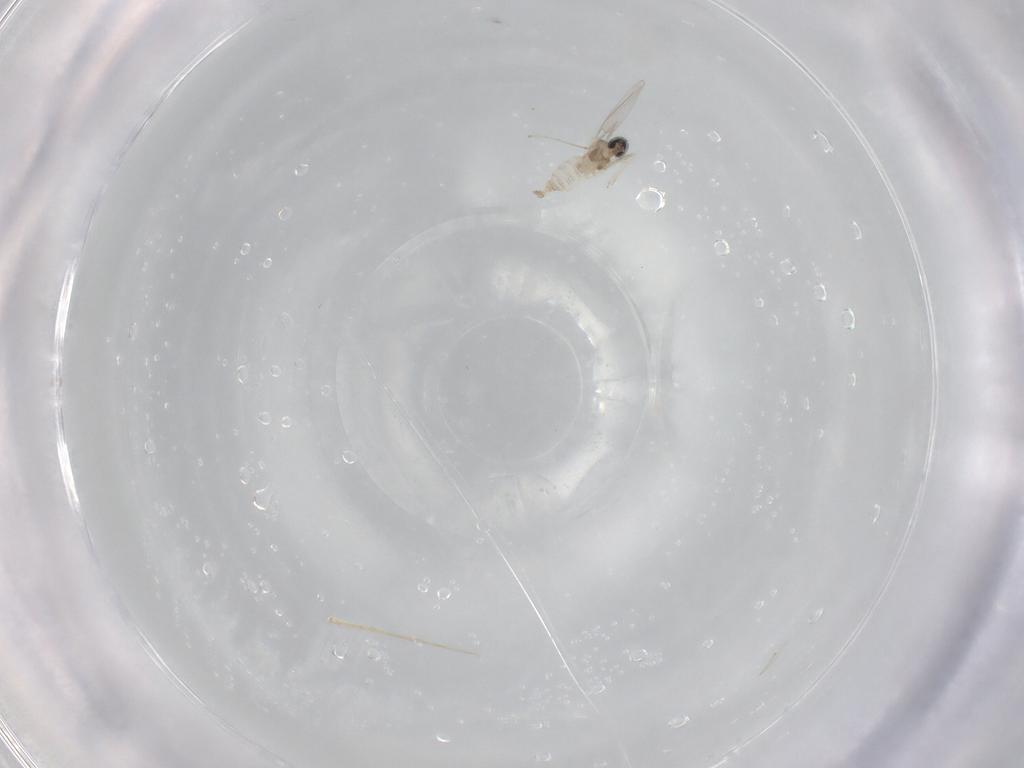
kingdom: Animalia
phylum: Arthropoda
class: Insecta
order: Diptera
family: Cecidomyiidae
